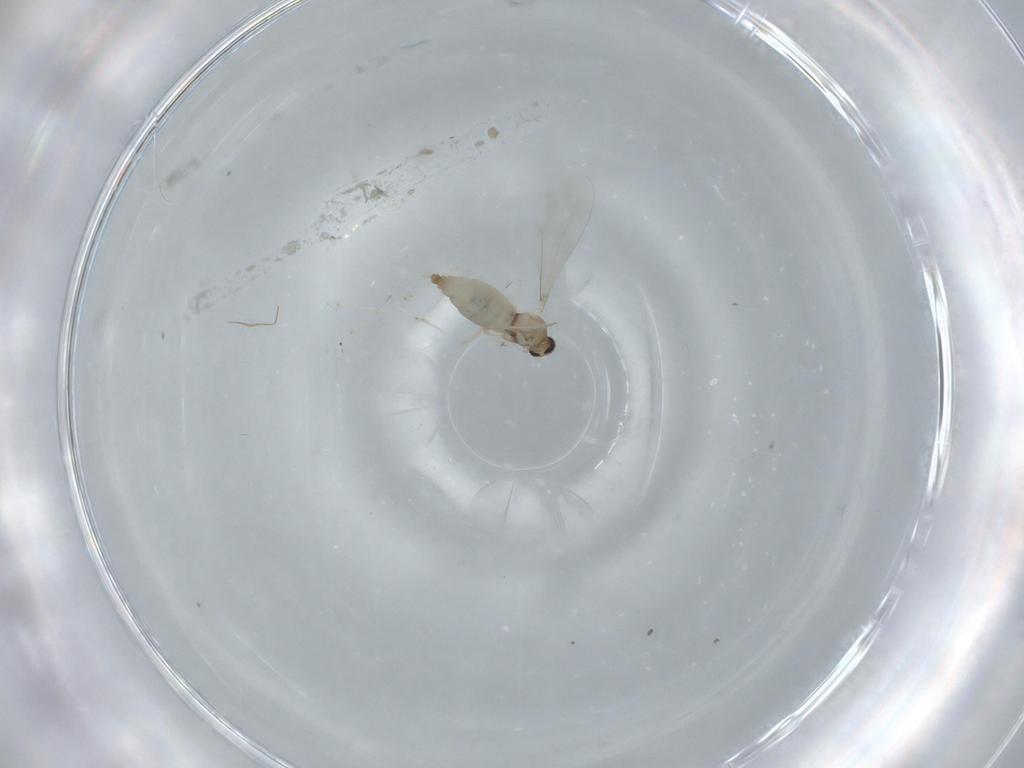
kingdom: Animalia
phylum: Arthropoda
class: Insecta
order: Diptera
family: Cecidomyiidae
